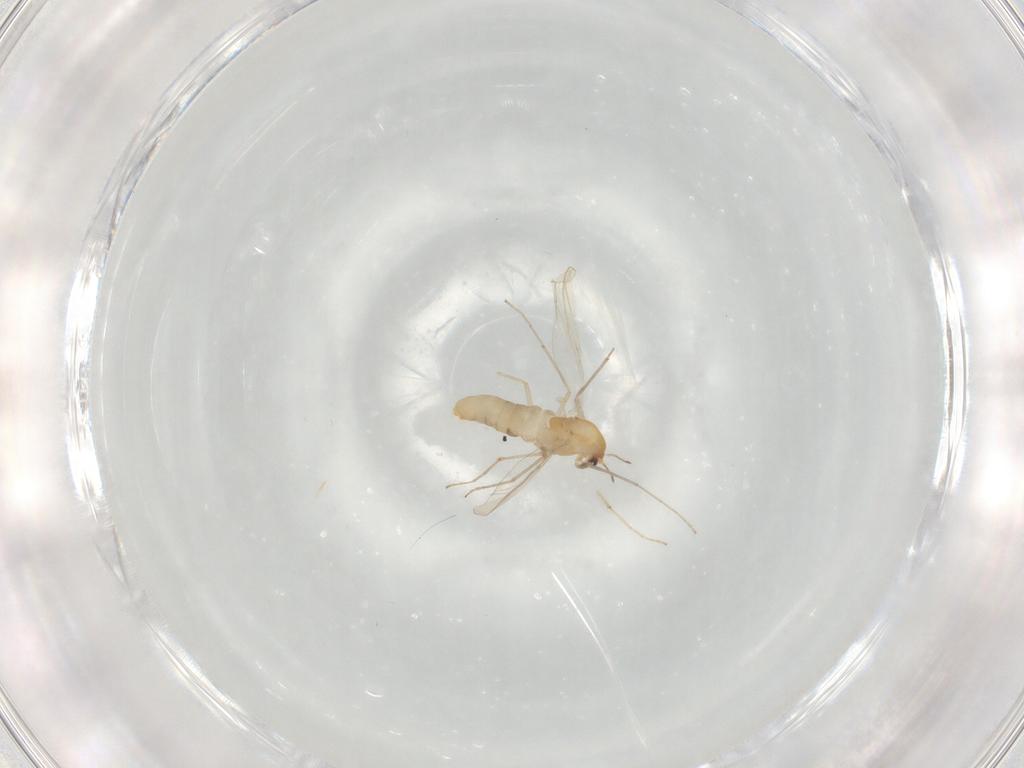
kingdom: Animalia
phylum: Arthropoda
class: Insecta
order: Diptera
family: Chironomidae
